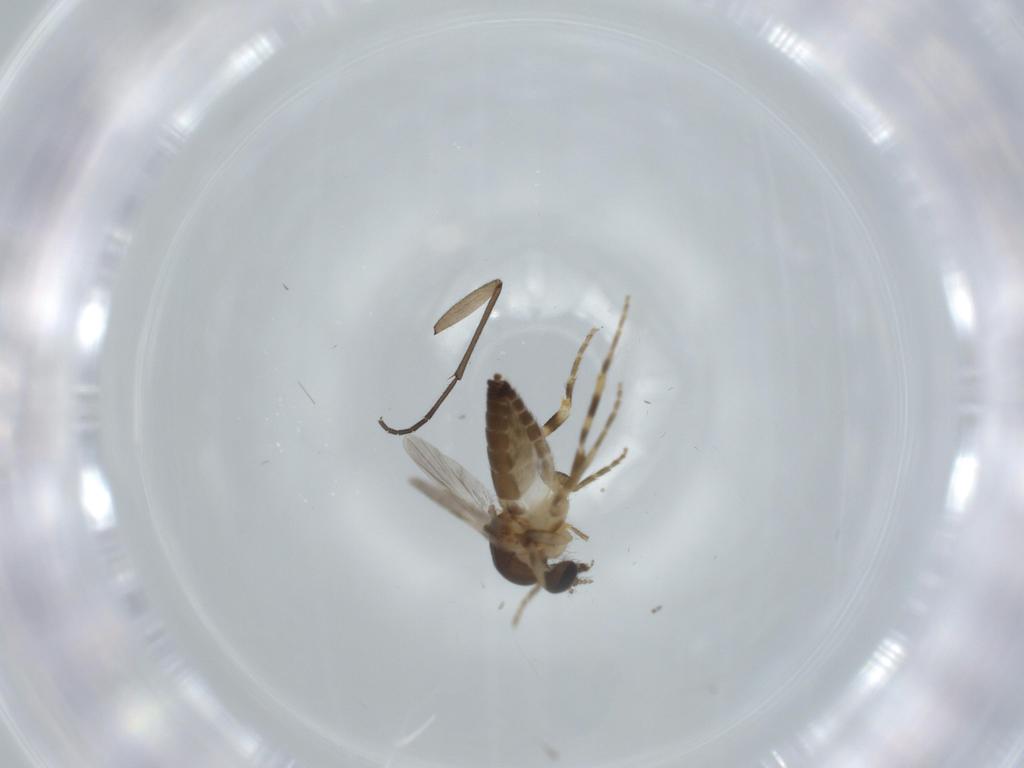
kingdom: Animalia
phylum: Arthropoda
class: Insecta
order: Diptera
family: Ceratopogonidae
